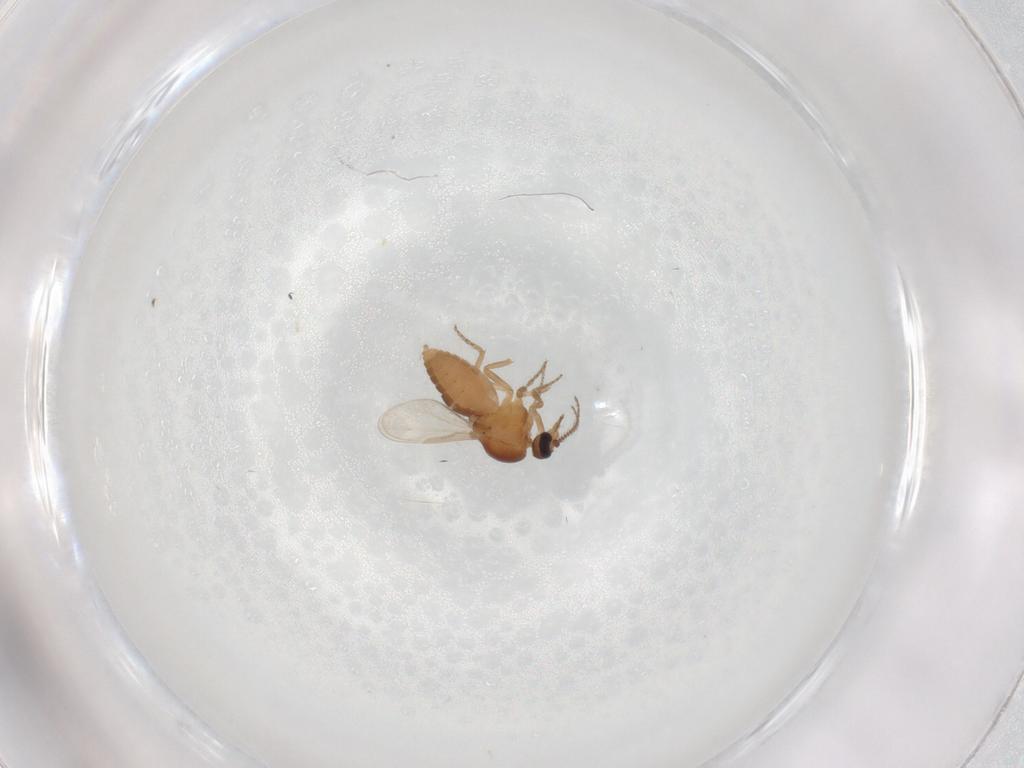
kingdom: Animalia
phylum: Arthropoda
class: Insecta
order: Diptera
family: Ceratopogonidae
